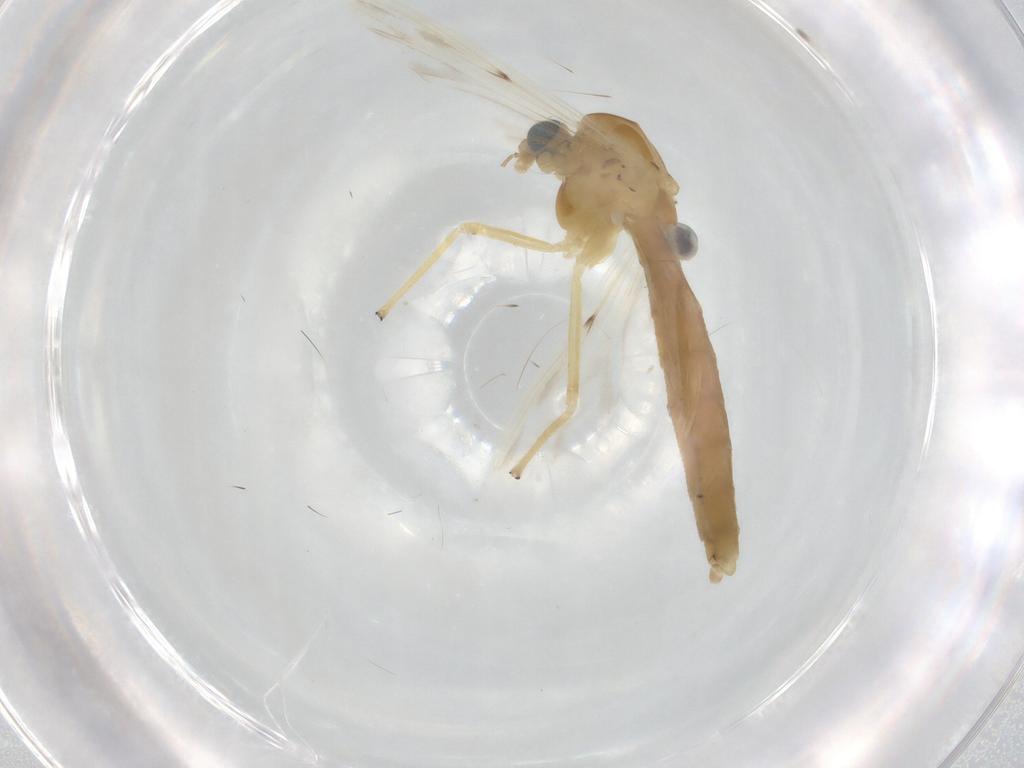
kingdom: Animalia
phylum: Arthropoda
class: Insecta
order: Diptera
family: Chironomidae
